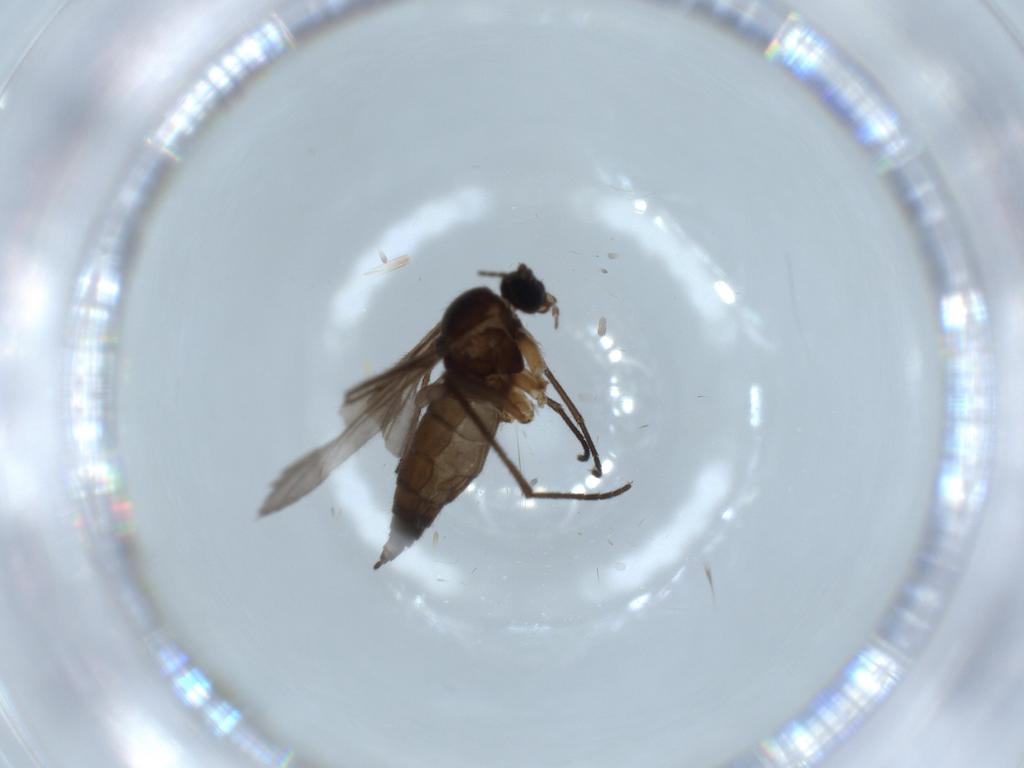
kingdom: Animalia
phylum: Arthropoda
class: Insecta
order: Diptera
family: Sciaridae
